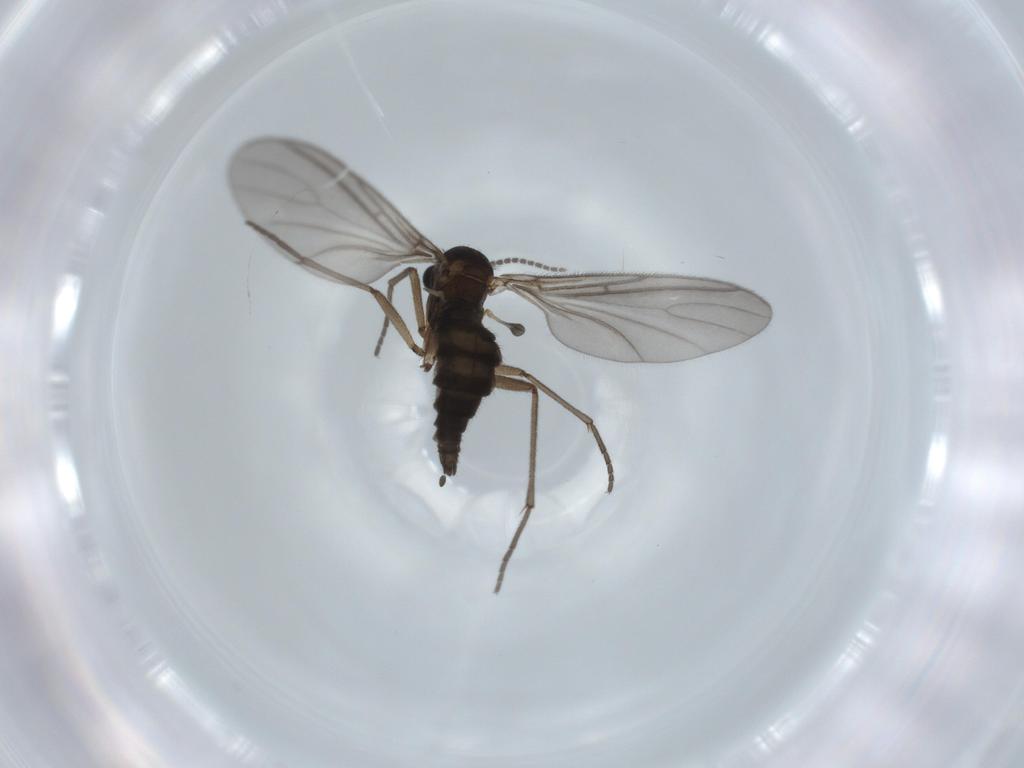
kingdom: Animalia
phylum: Arthropoda
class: Insecta
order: Diptera
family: Sciaridae
